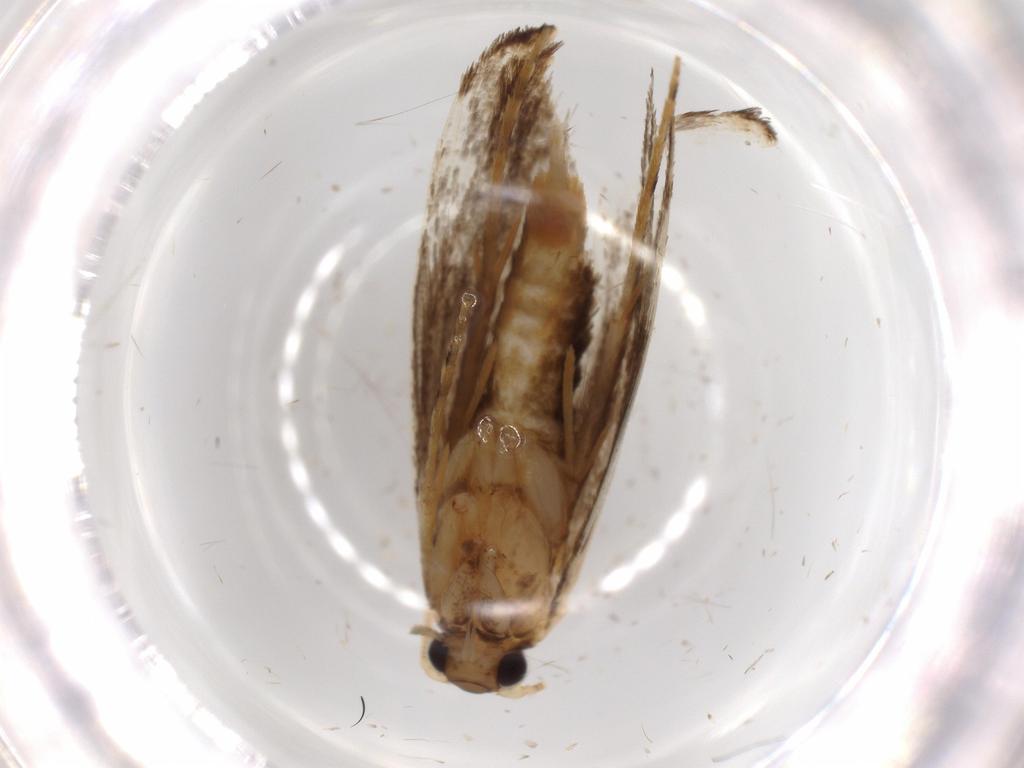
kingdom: Animalia
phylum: Arthropoda
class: Insecta
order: Lepidoptera
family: Tineidae
